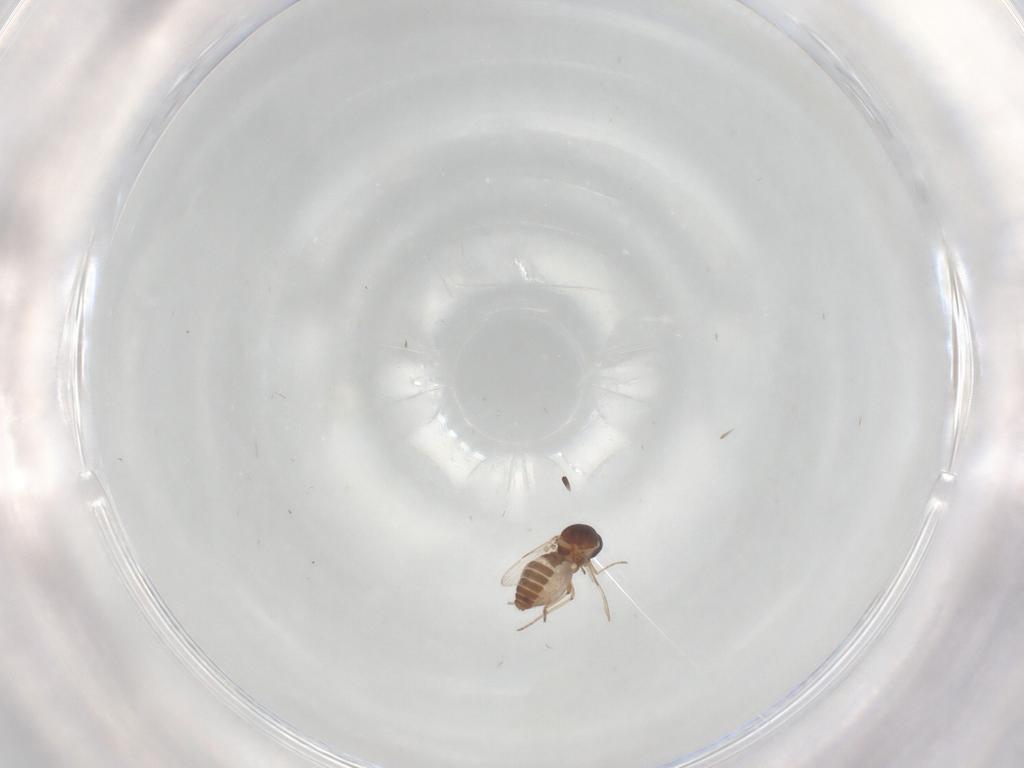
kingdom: Animalia
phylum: Arthropoda
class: Insecta
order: Diptera
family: Ceratopogonidae
